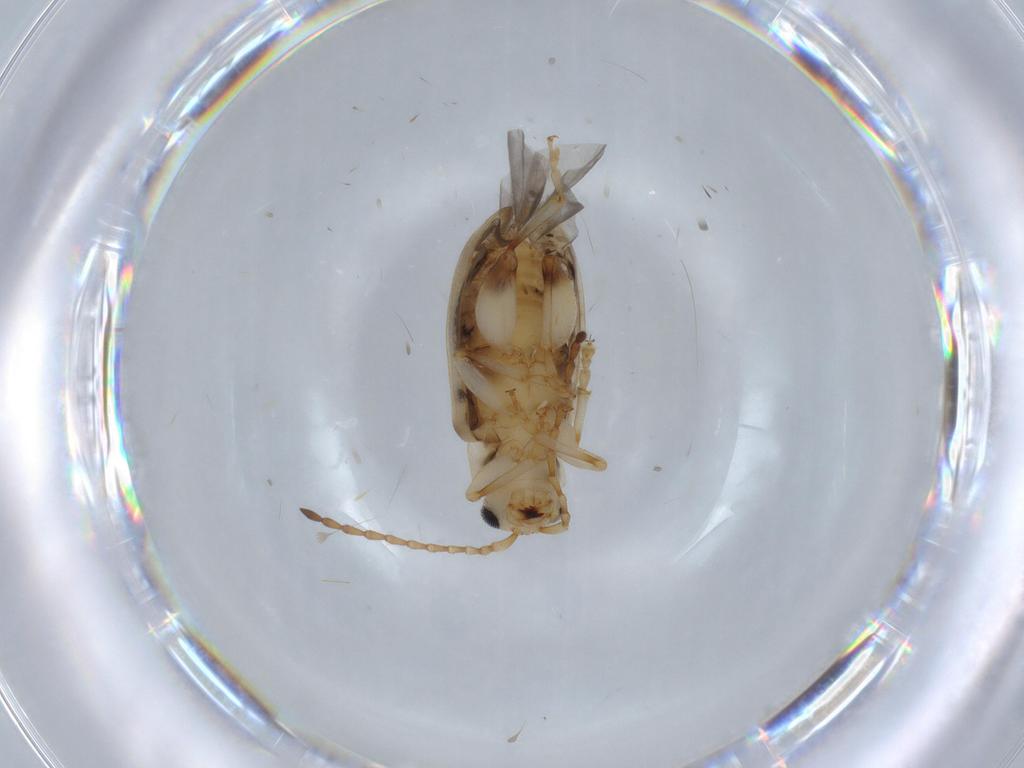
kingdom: Animalia
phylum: Arthropoda
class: Insecta
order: Coleoptera
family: Chrysomelidae
